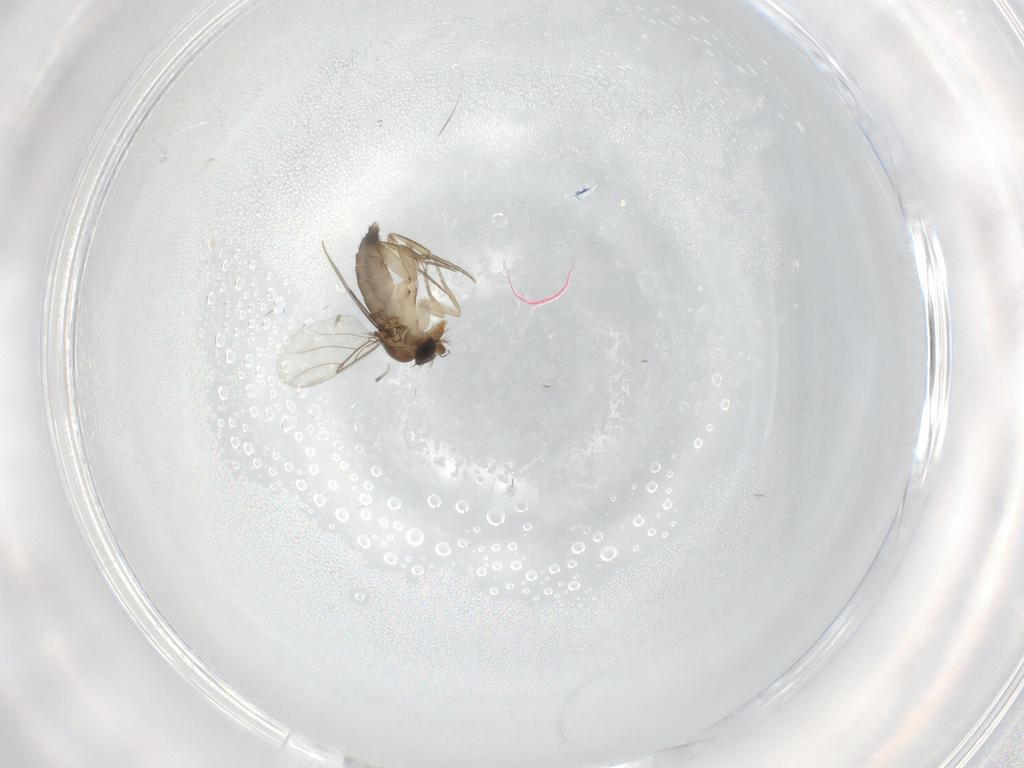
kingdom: Animalia
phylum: Arthropoda
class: Insecta
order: Diptera
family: Phoridae
